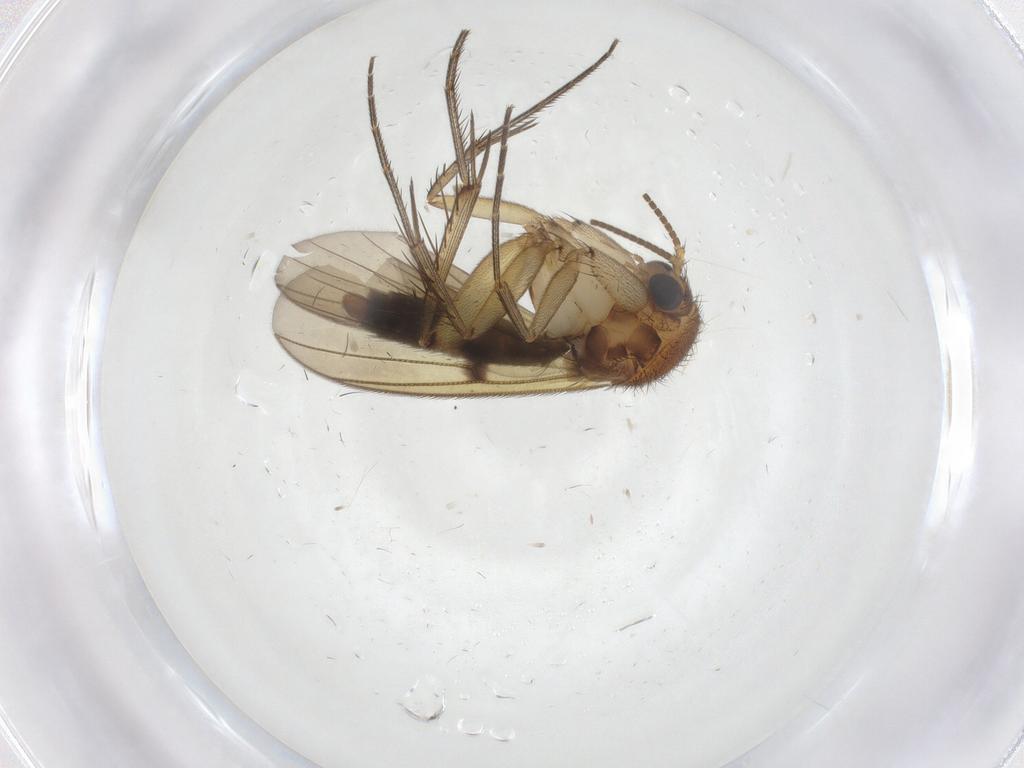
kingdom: Animalia
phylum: Arthropoda
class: Insecta
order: Diptera
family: Mycetophilidae
